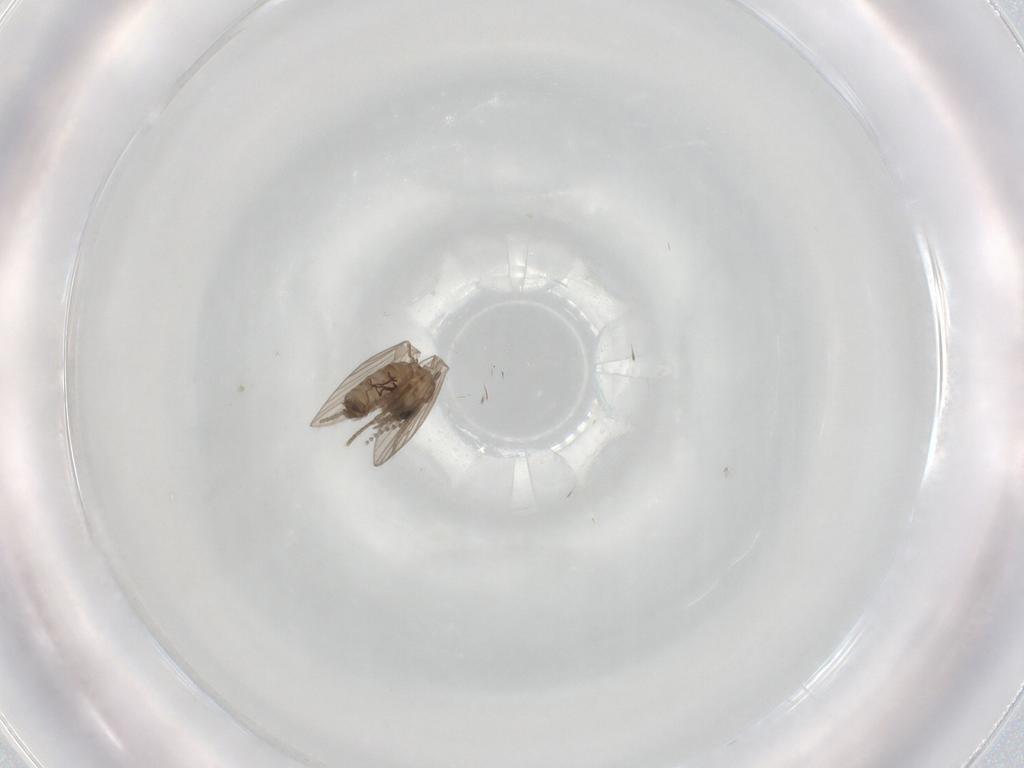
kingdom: Animalia
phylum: Arthropoda
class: Insecta
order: Diptera
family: Psychodidae
